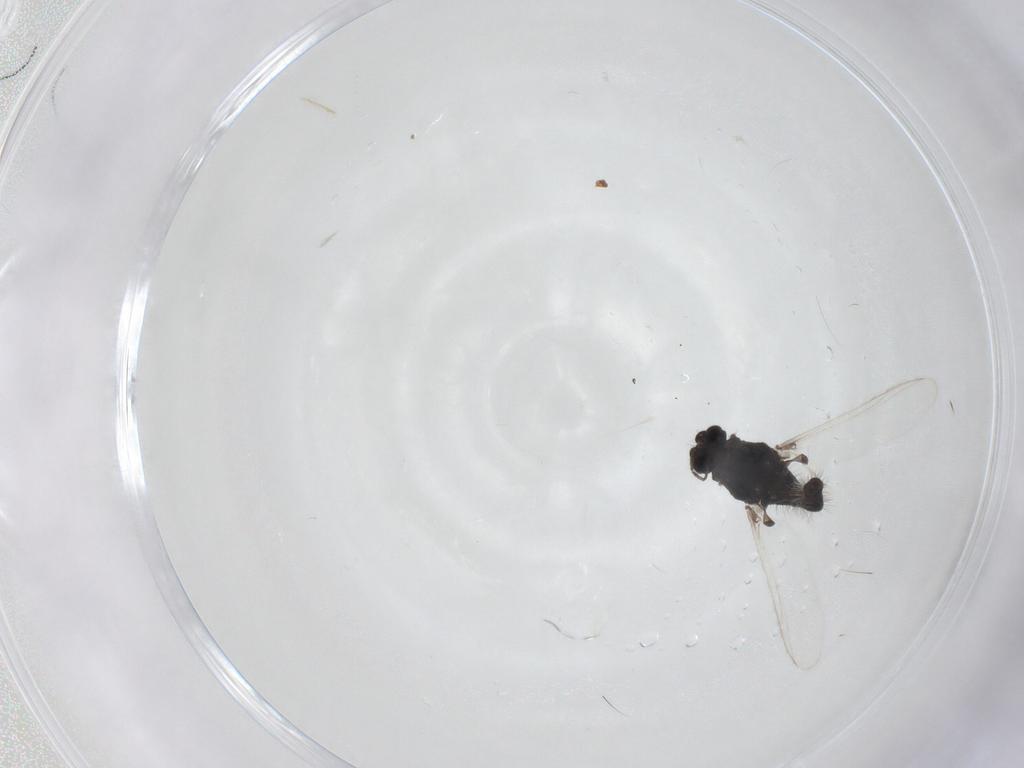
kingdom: Animalia
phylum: Arthropoda
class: Insecta
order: Diptera
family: Chironomidae
